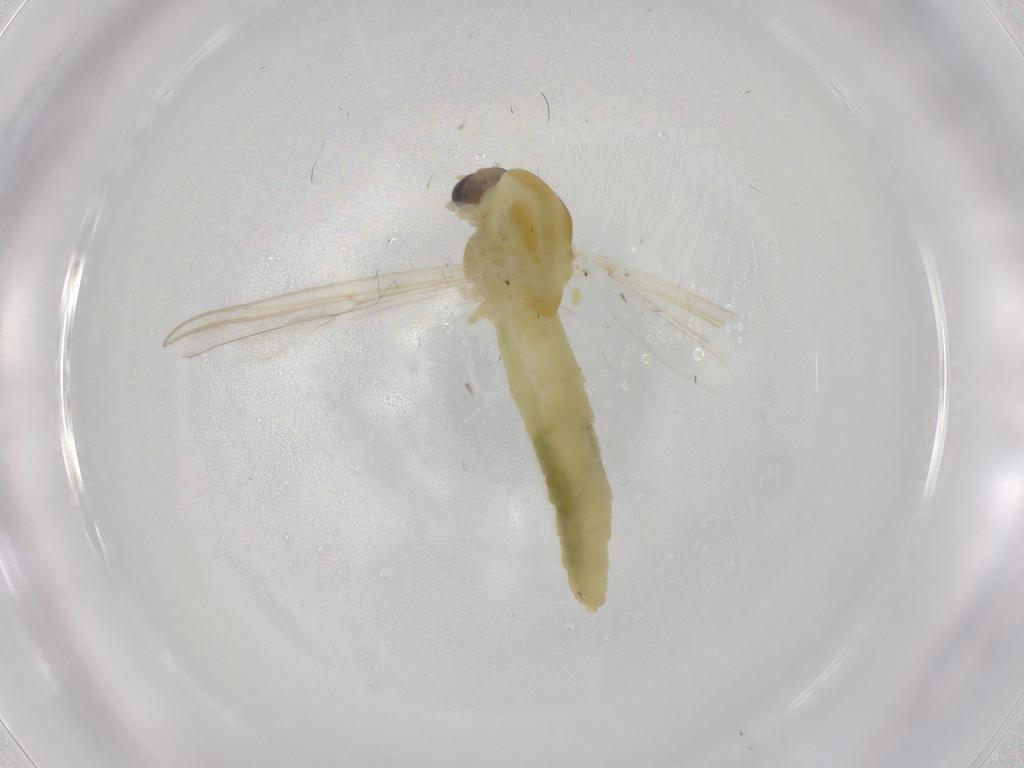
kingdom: Animalia
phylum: Arthropoda
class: Insecta
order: Diptera
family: Chironomidae
